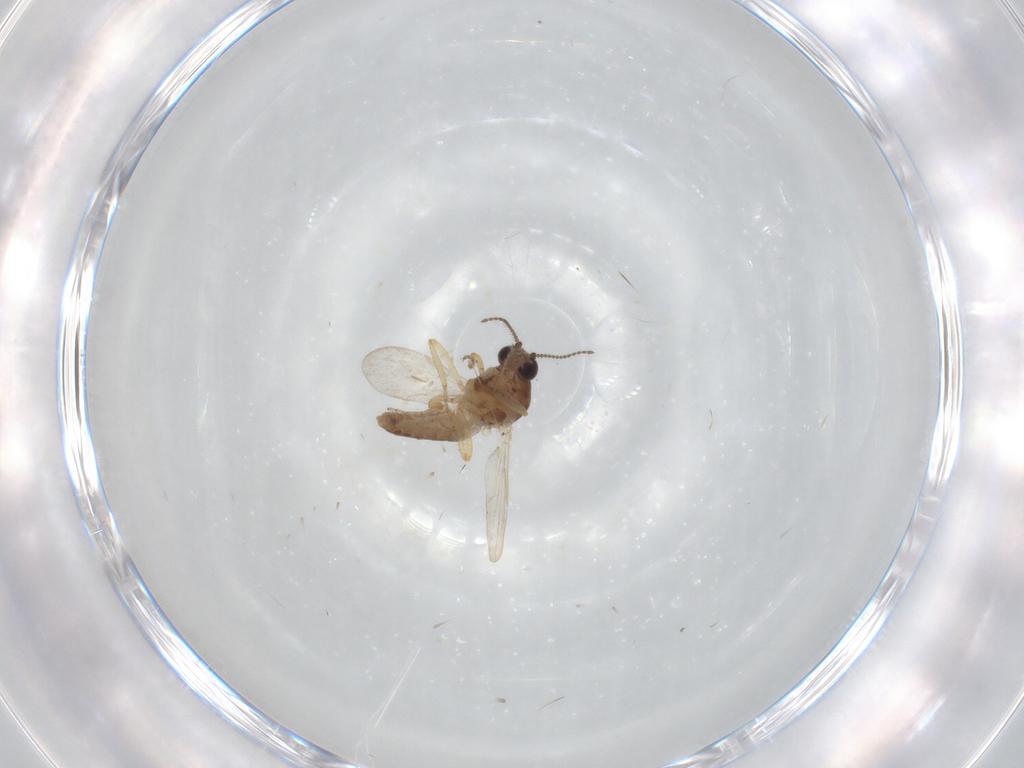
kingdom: Animalia
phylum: Arthropoda
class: Insecta
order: Diptera
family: Ceratopogonidae
